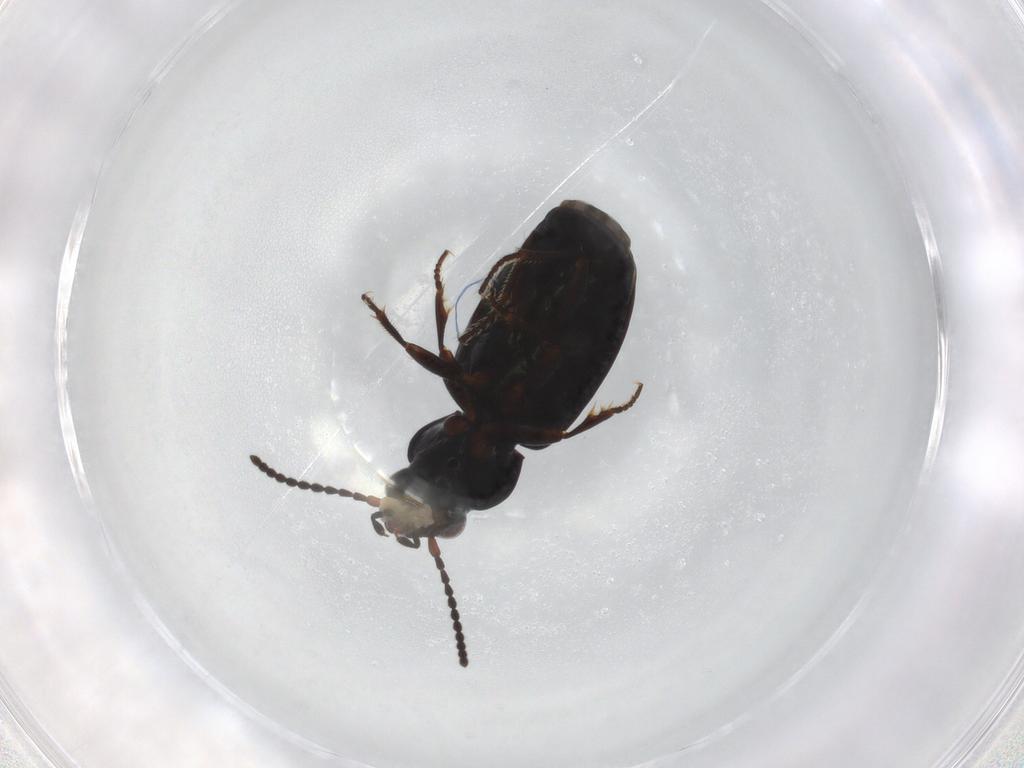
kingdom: Animalia
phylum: Arthropoda
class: Insecta
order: Coleoptera
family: Carabidae
